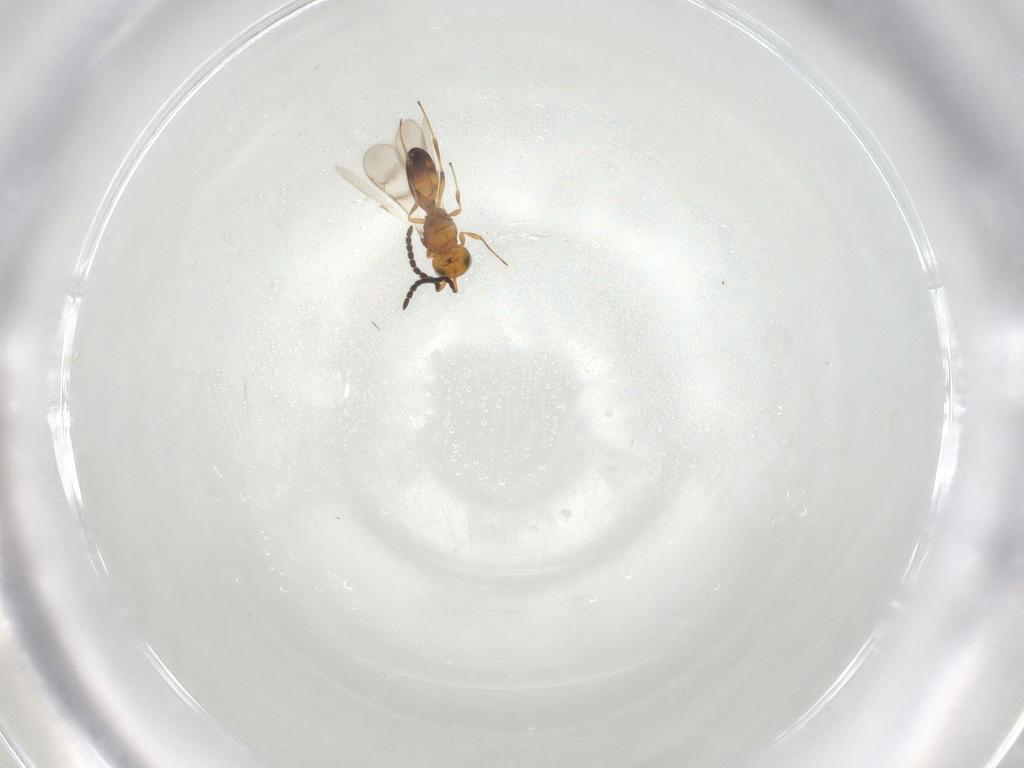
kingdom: Animalia
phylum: Arthropoda
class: Insecta
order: Hymenoptera
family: Scelionidae
